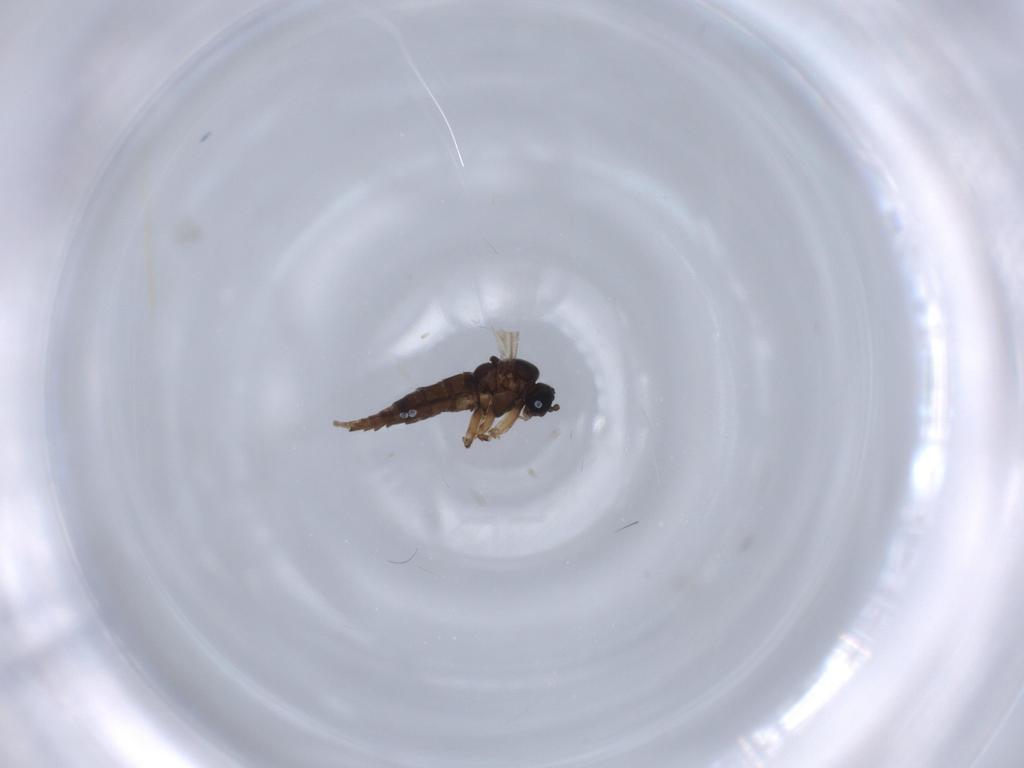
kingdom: Animalia
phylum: Arthropoda
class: Insecta
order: Diptera
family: Sciaridae
